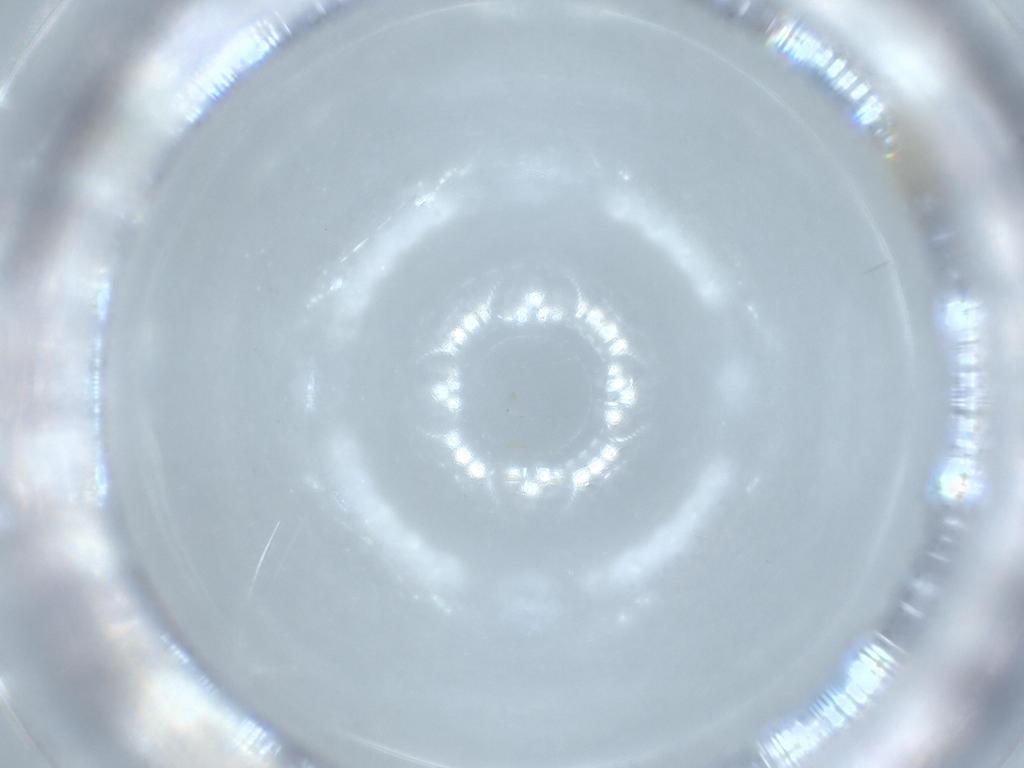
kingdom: Animalia
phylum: Arthropoda
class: Insecta
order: Diptera
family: Cecidomyiidae
